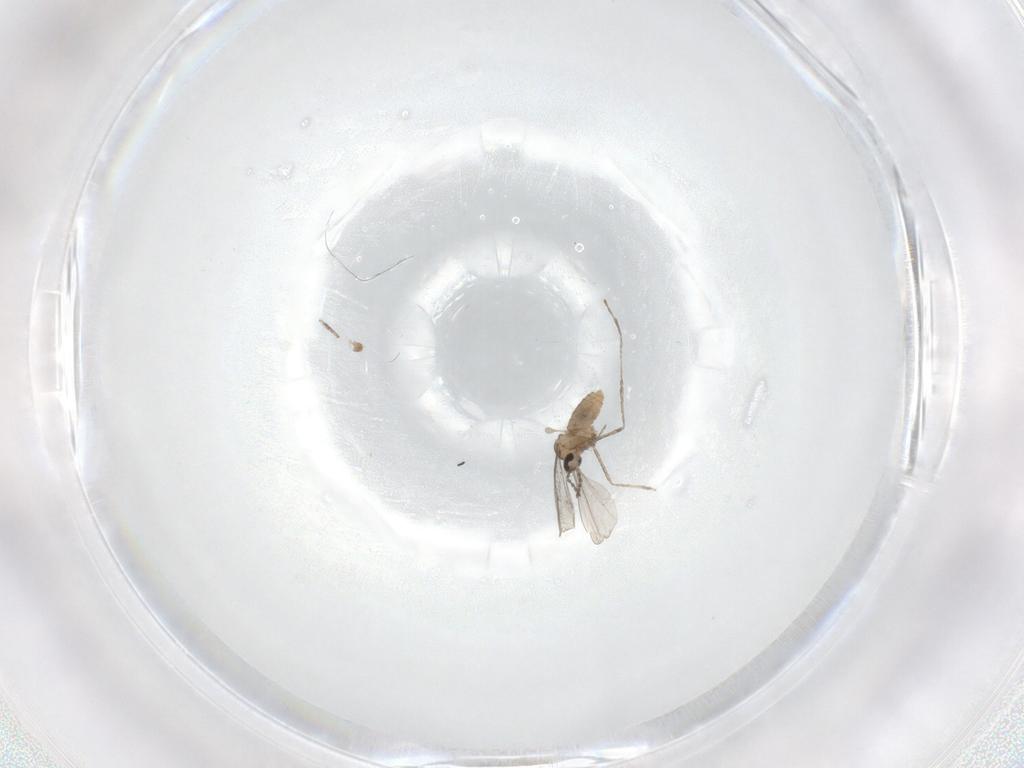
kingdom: Animalia
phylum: Arthropoda
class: Insecta
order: Diptera
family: Cecidomyiidae
